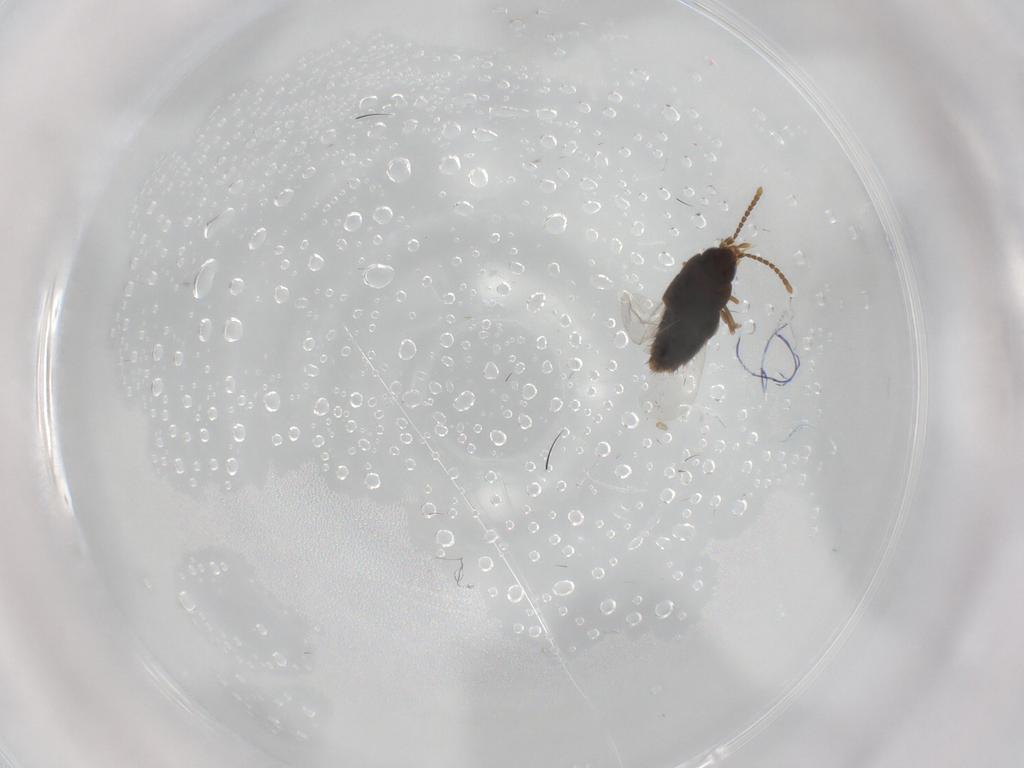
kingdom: Animalia
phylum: Arthropoda
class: Insecta
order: Coleoptera
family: Staphylinidae
